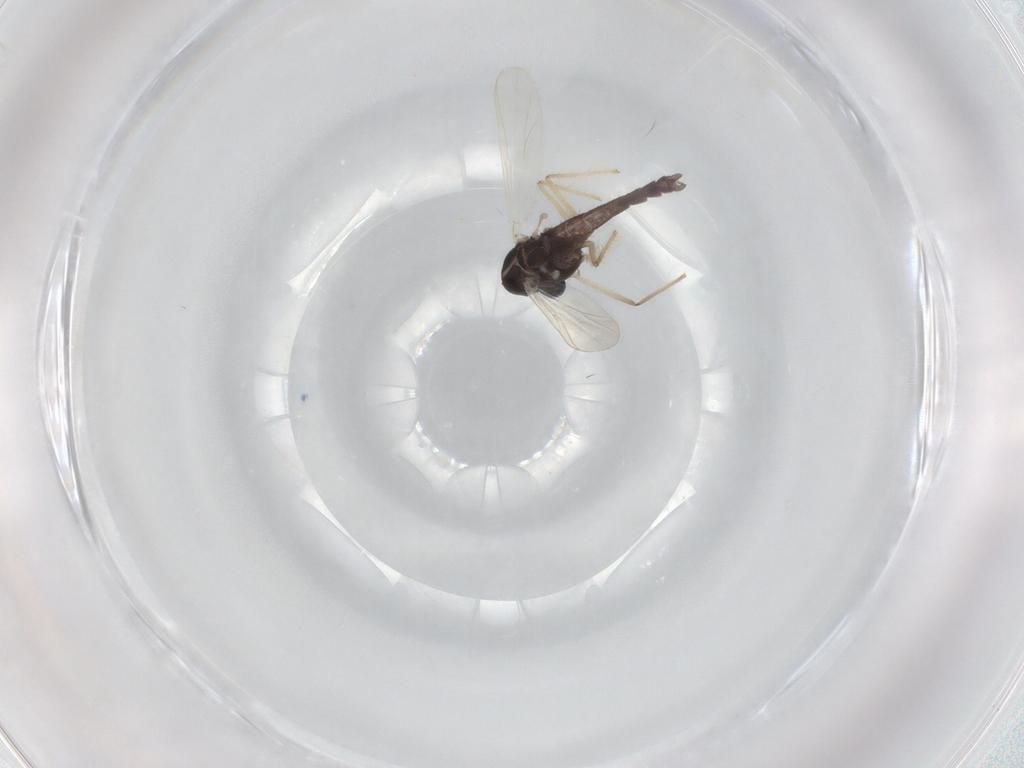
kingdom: Animalia
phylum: Arthropoda
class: Insecta
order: Diptera
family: Chironomidae
